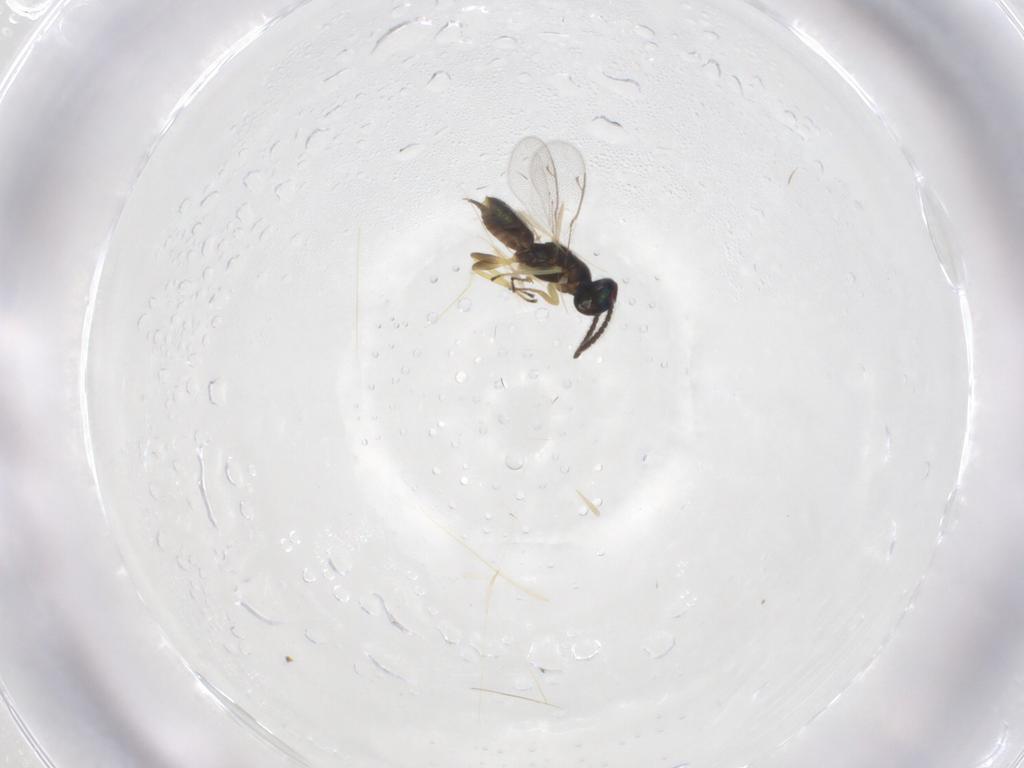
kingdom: Animalia
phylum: Arthropoda
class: Insecta
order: Hymenoptera
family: Eupelmidae
